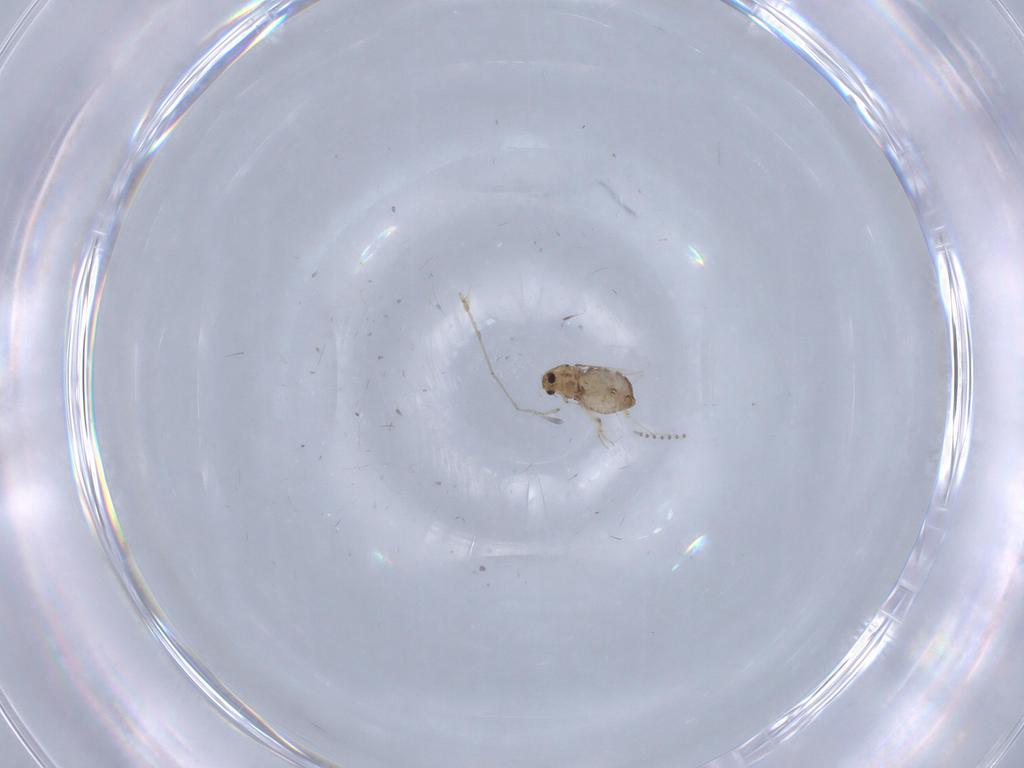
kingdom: Animalia
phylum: Arthropoda
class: Insecta
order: Diptera
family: Chironomidae
